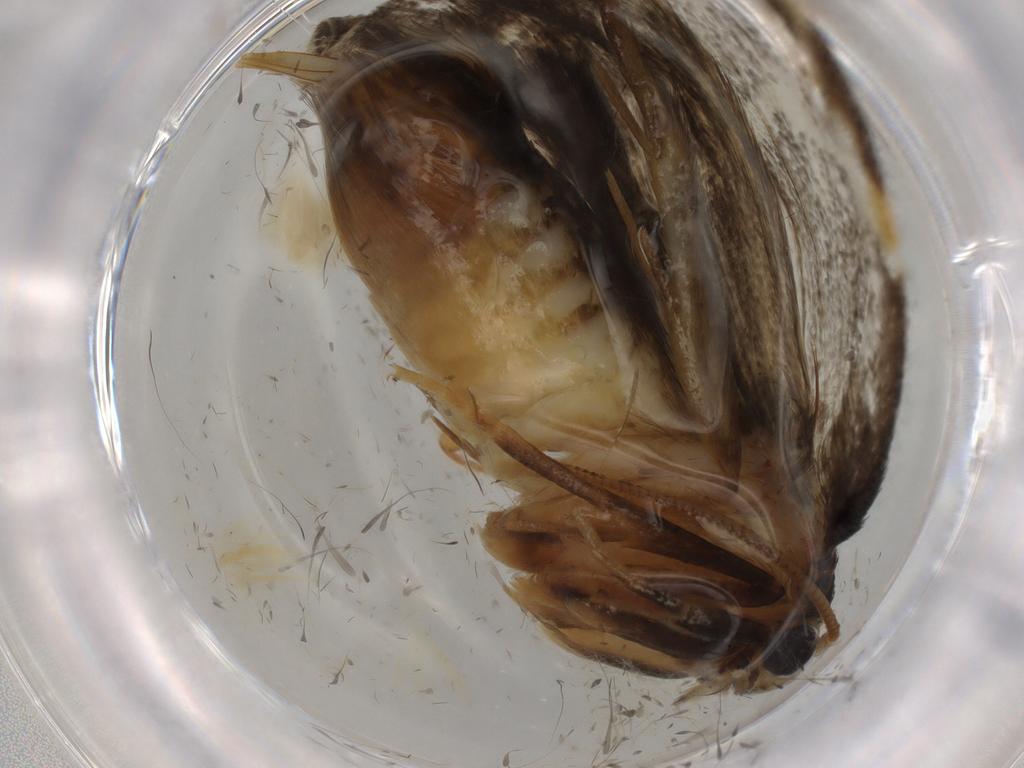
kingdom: Animalia
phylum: Arthropoda
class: Insecta
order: Lepidoptera
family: Psychidae
